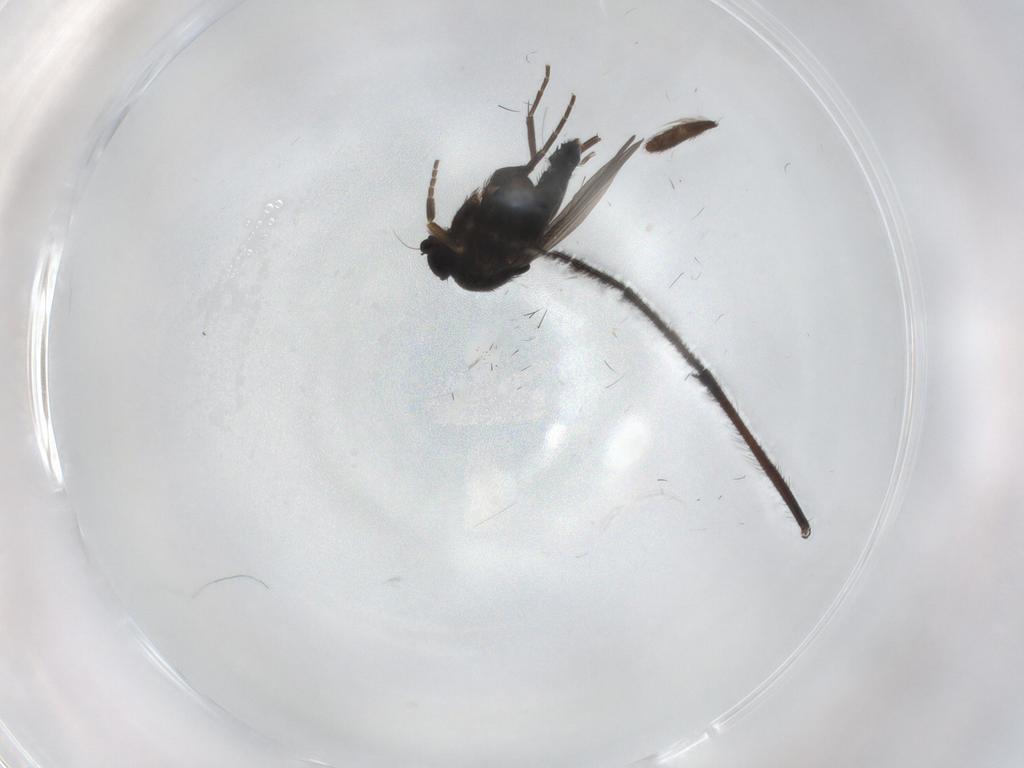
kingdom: Animalia
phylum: Arthropoda
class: Insecta
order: Diptera
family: Phoridae
